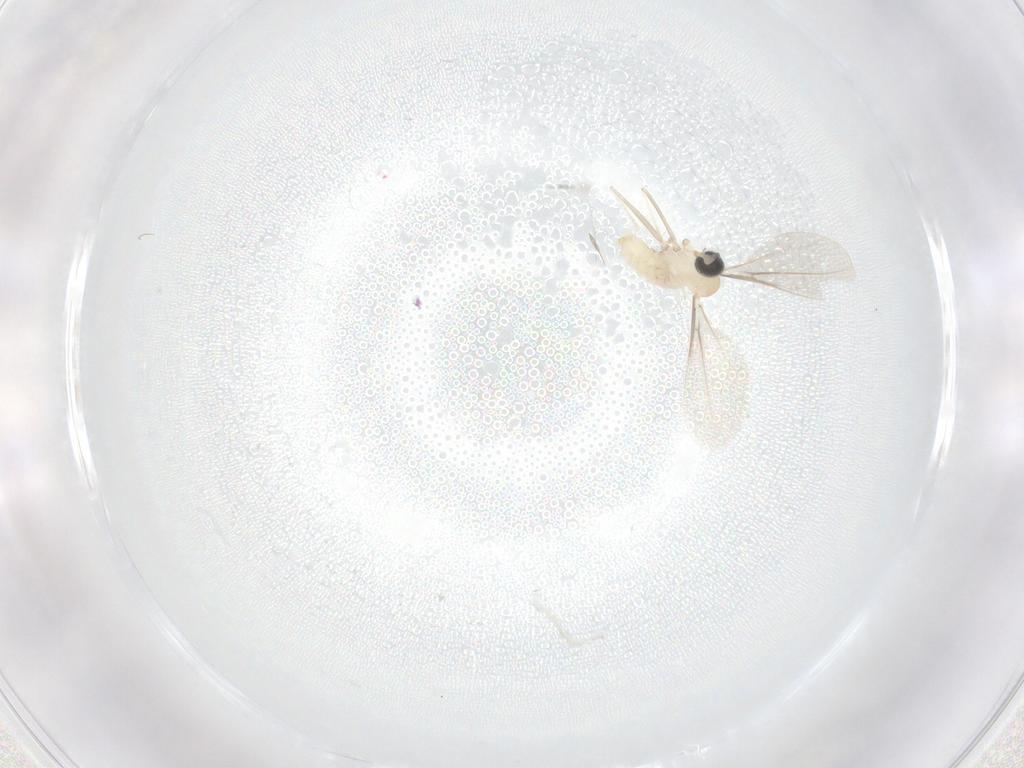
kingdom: Animalia
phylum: Arthropoda
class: Insecta
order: Diptera
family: Cecidomyiidae
